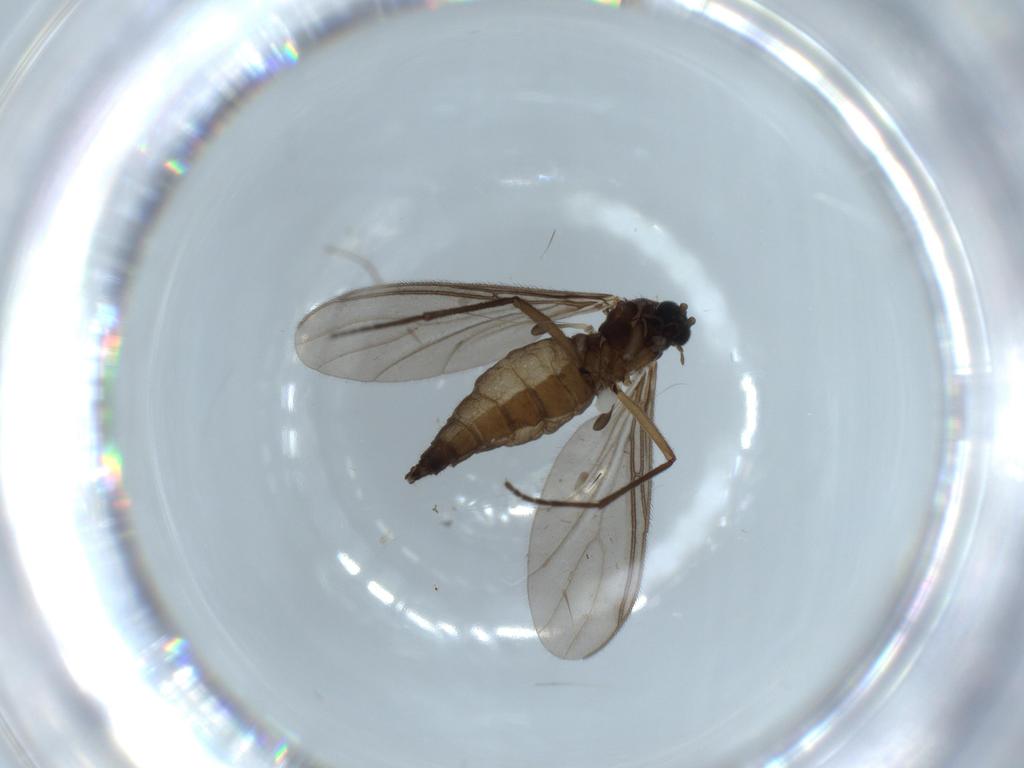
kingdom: Animalia
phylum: Arthropoda
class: Insecta
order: Diptera
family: Sciaridae
